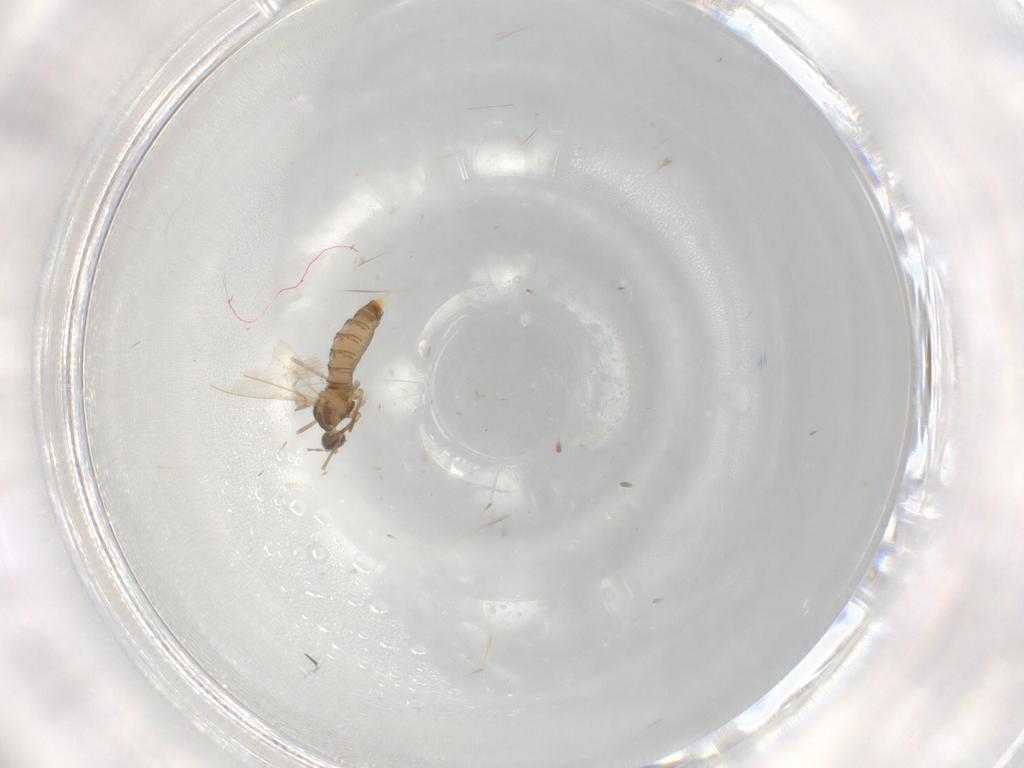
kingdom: Animalia
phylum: Arthropoda
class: Insecta
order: Diptera
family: Cecidomyiidae
